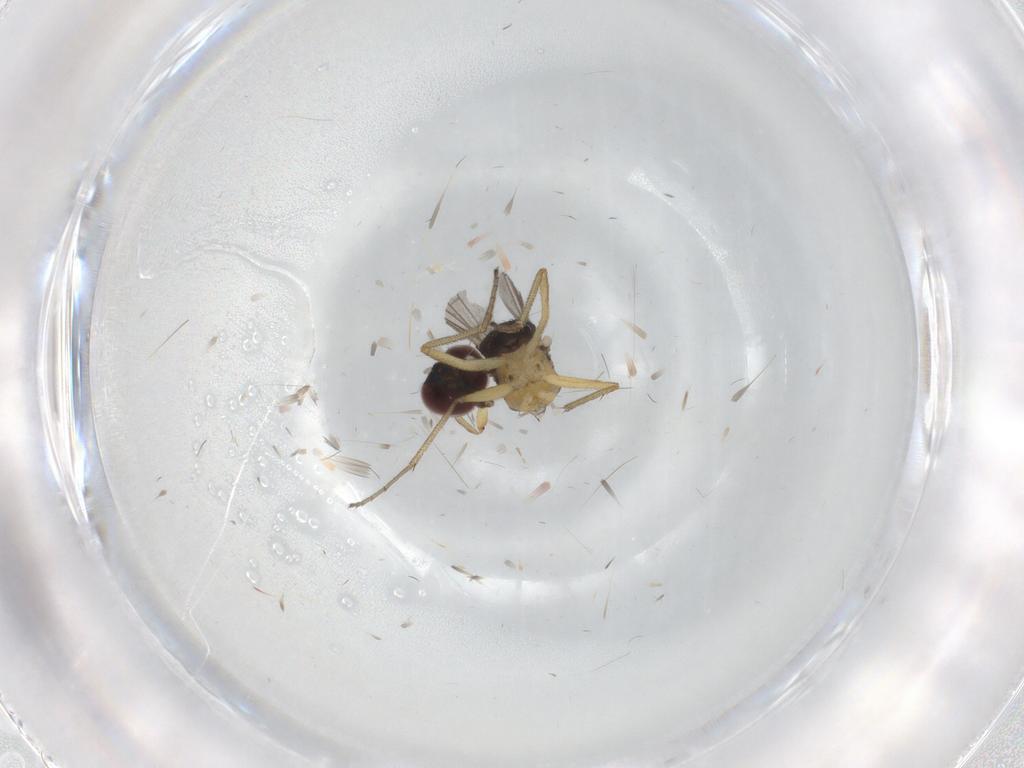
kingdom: Animalia
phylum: Arthropoda
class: Insecta
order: Diptera
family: Dolichopodidae
